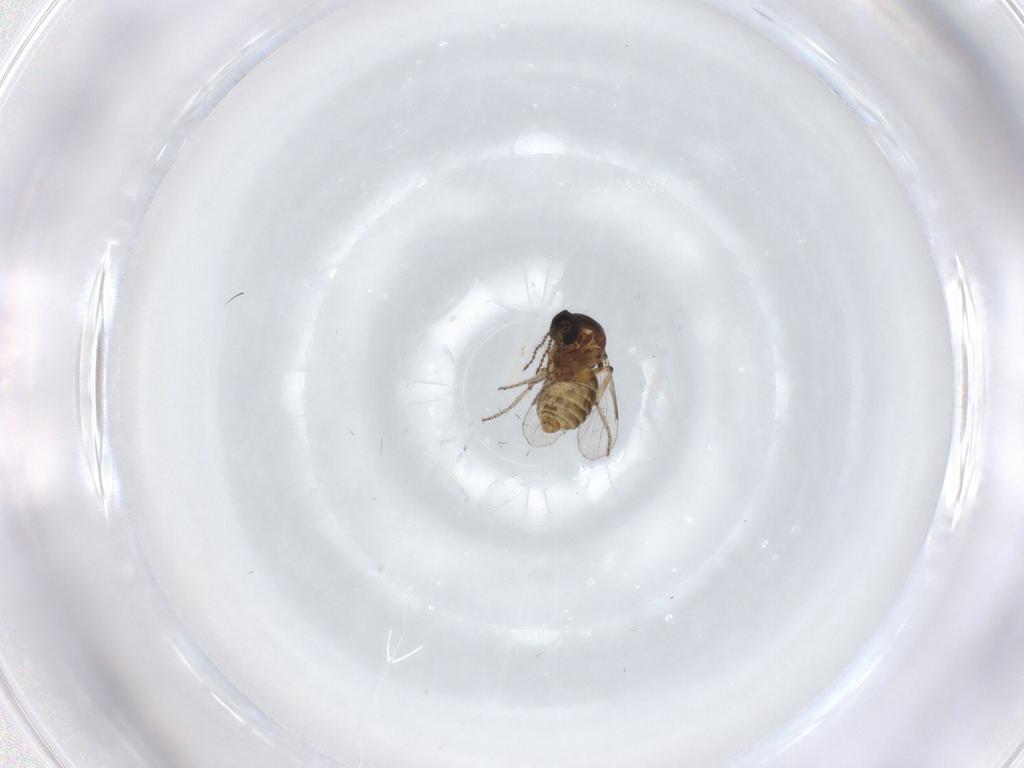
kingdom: Animalia
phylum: Arthropoda
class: Insecta
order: Diptera
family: Ceratopogonidae
